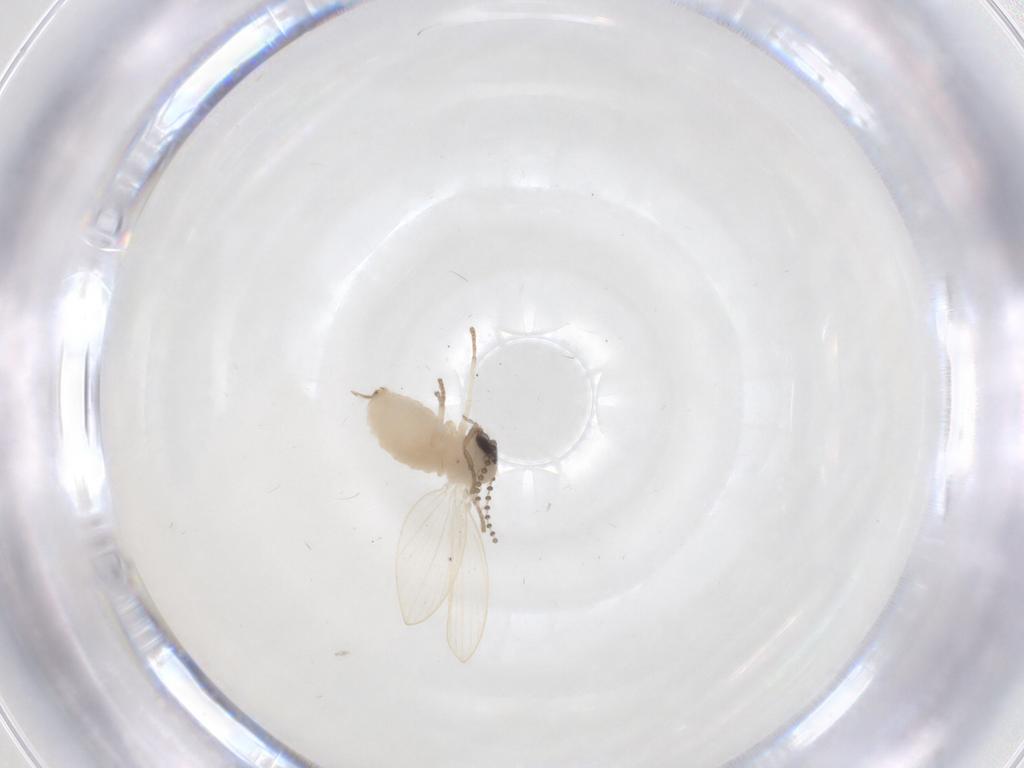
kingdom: Animalia
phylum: Arthropoda
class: Insecta
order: Diptera
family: Psychodidae
